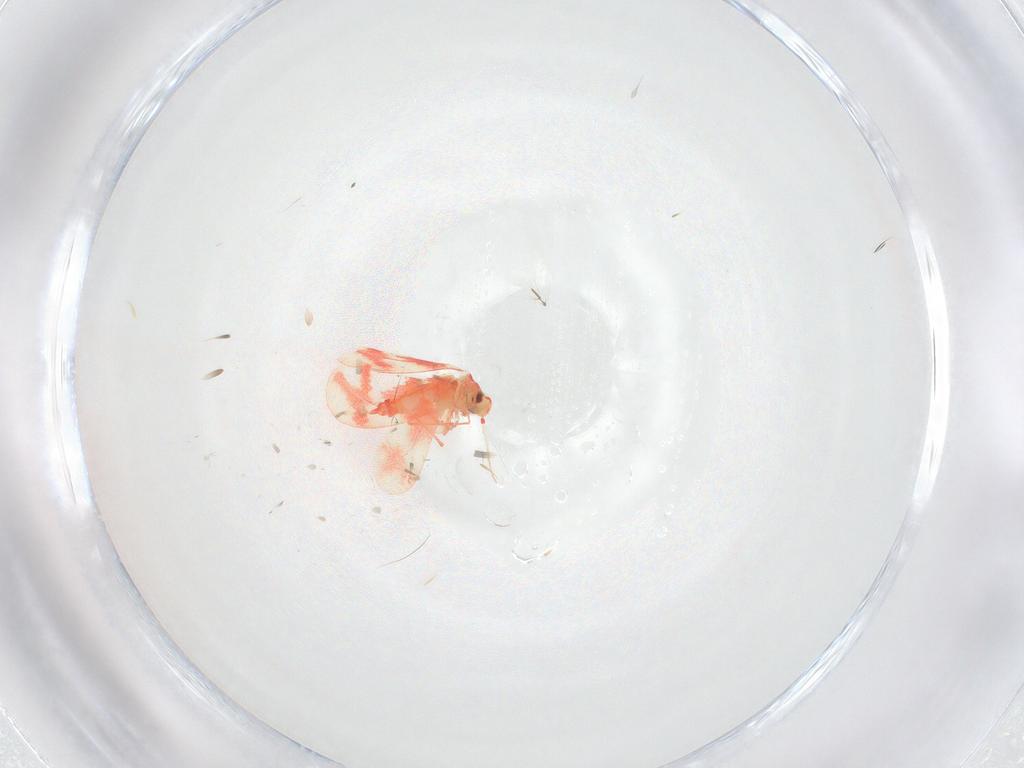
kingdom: Animalia
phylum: Arthropoda
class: Insecta
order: Hemiptera
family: Aleyrodidae
